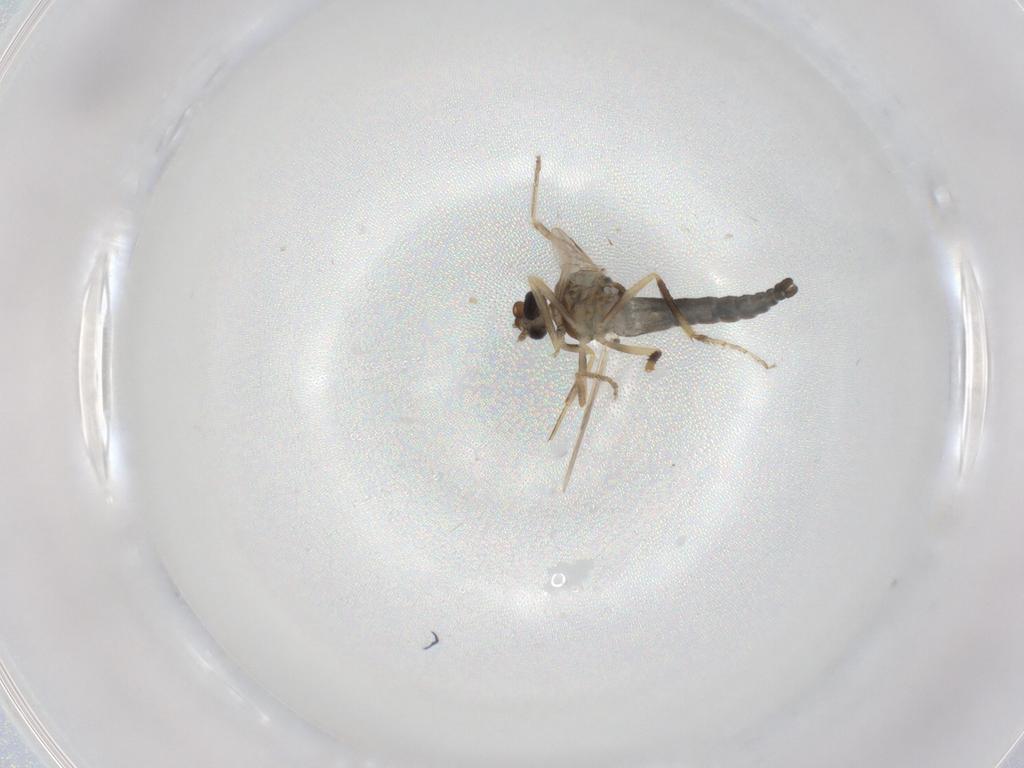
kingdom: Animalia
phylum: Arthropoda
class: Insecta
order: Diptera
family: Ceratopogonidae
